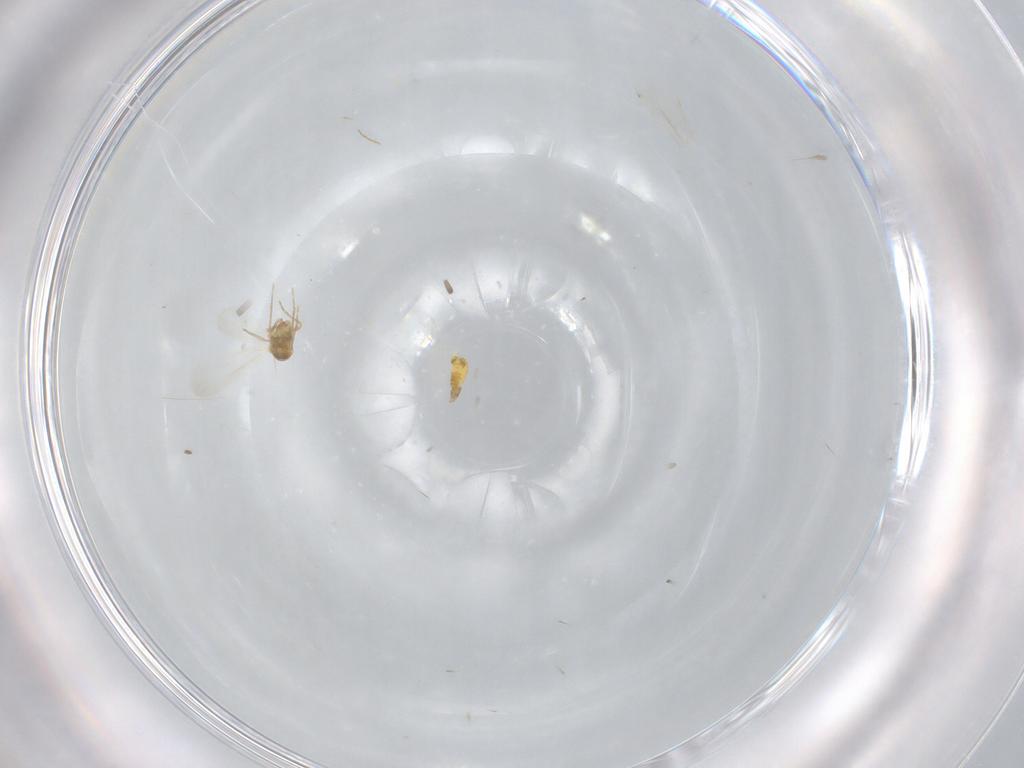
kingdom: Animalia
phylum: Arthropoda
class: Insecta
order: Hemiptera
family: Aleyrodidae
